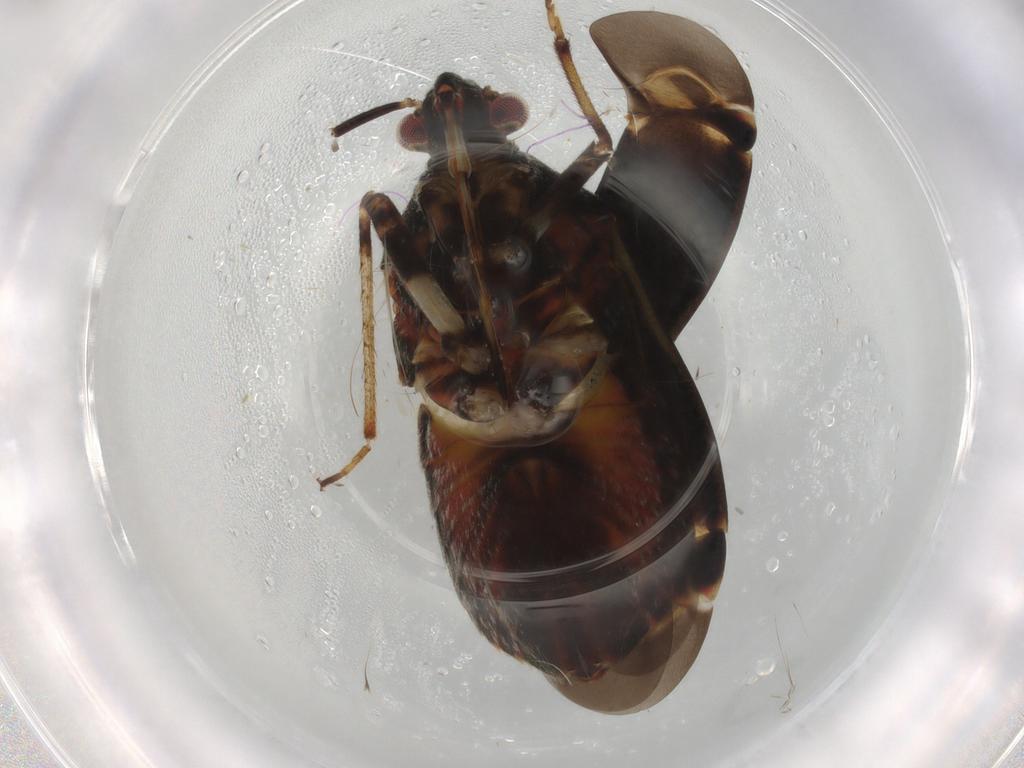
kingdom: Animalia
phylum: Arthropoda
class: Insecta
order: Hemiptera
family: Miridae
